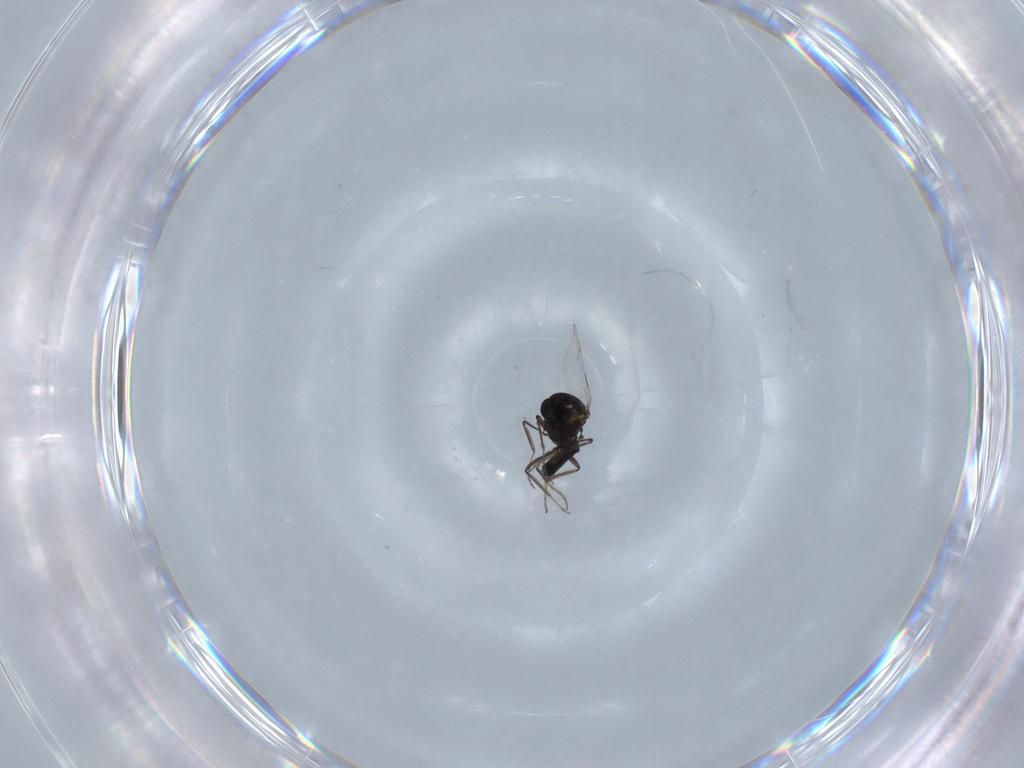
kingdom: Animalia
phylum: Arthropoda
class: Insecta
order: Diptera
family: Ceratopogonidae
